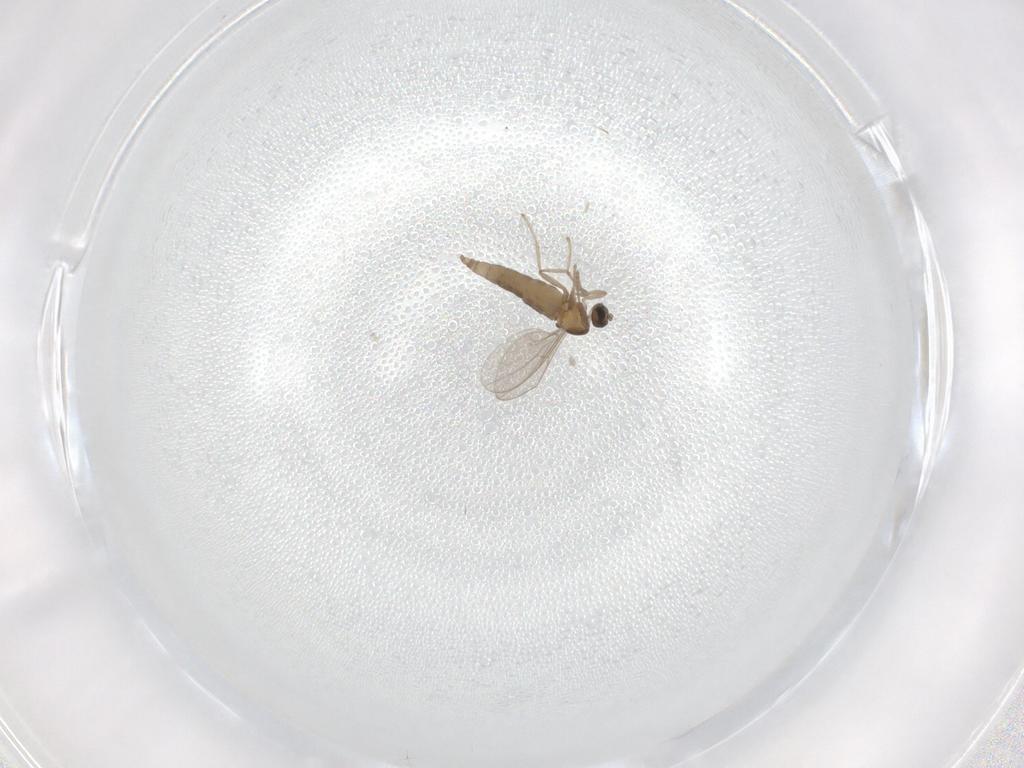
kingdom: Animalia
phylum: Arthropoda
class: Insecta
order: Diptera
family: Cecidomyiidae
